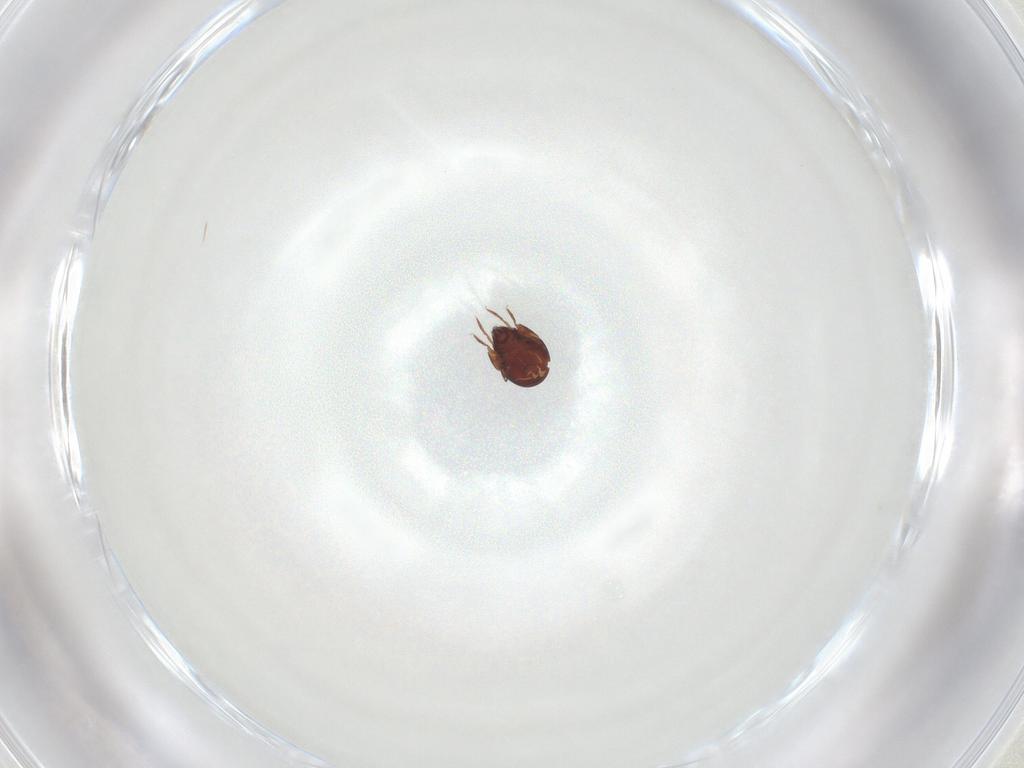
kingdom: Animalia
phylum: Arthropoda
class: Arachnida
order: Sarcoptiformes
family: Humerobatidae
